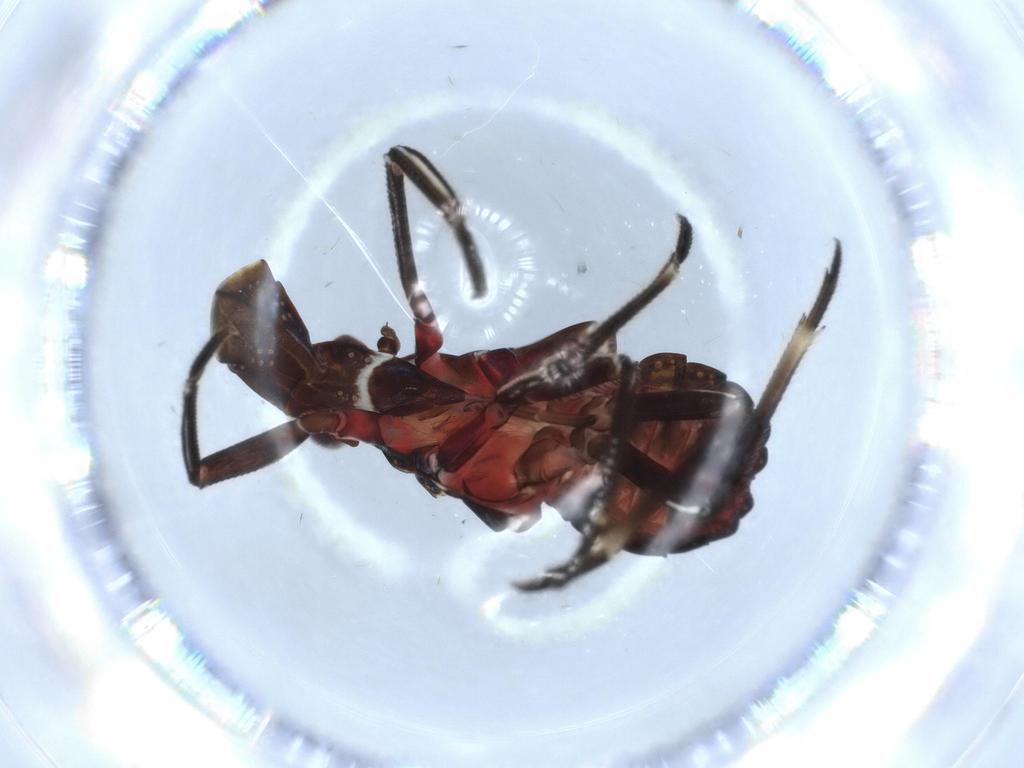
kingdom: Animalia
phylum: Arthropoda
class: Insecta
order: Hemiptera
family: Fulgoridae
